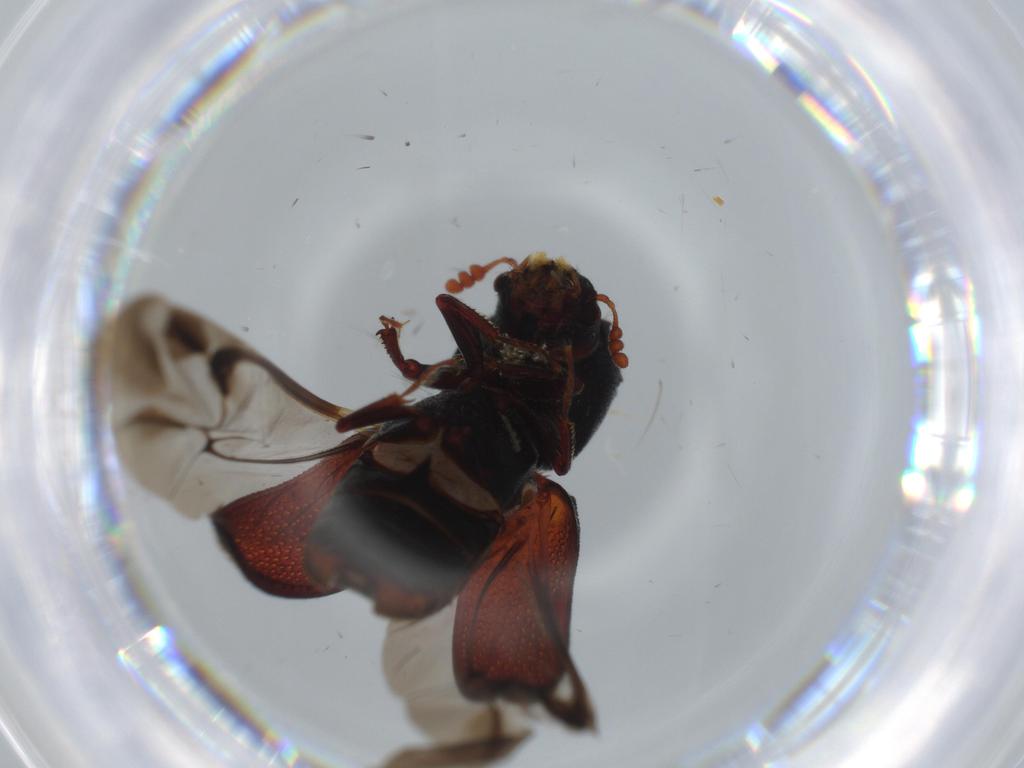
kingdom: Animalia
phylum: Arthropoda
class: Insecta
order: Coleoptera
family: Bostrichidae
